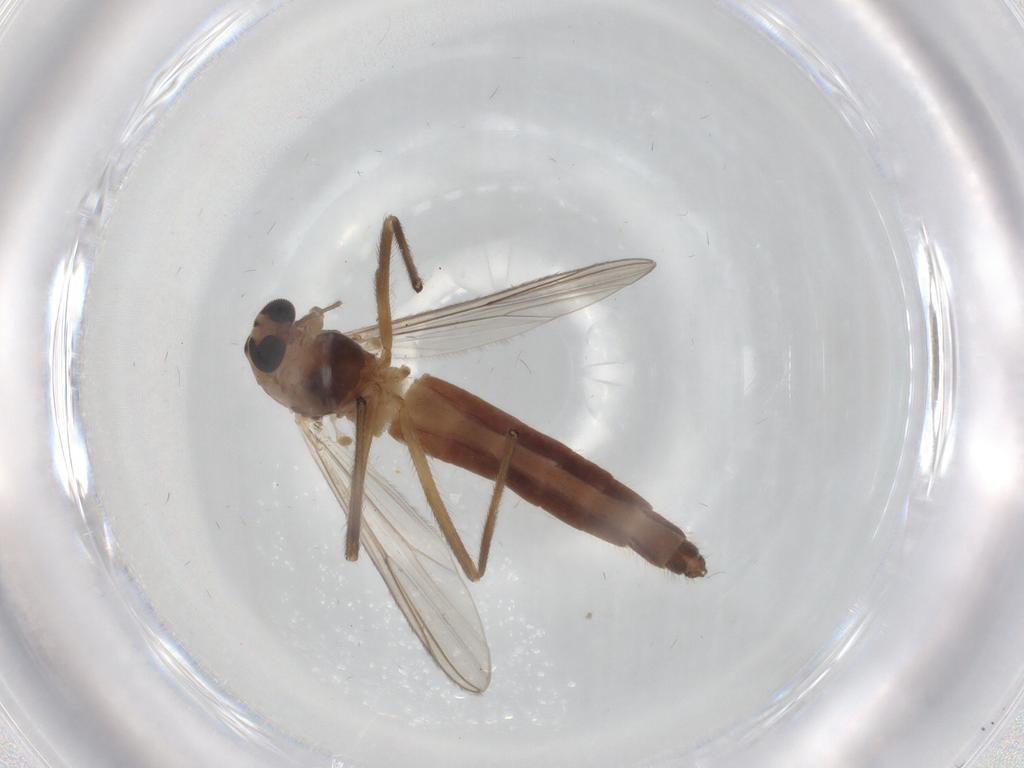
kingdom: Animalia
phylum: Arthropoda
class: Insecta
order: Diptera
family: Chironomidae
